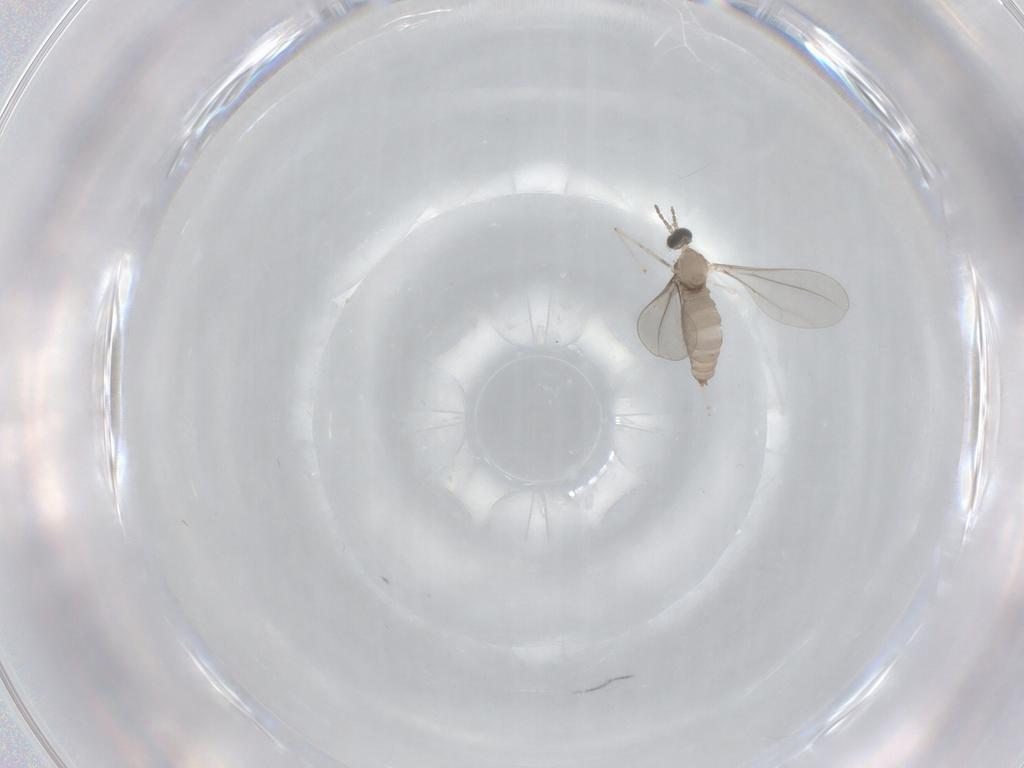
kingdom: Animalia
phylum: Arthropoda
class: Insecta
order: Diptera
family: Cecidomyiidae
